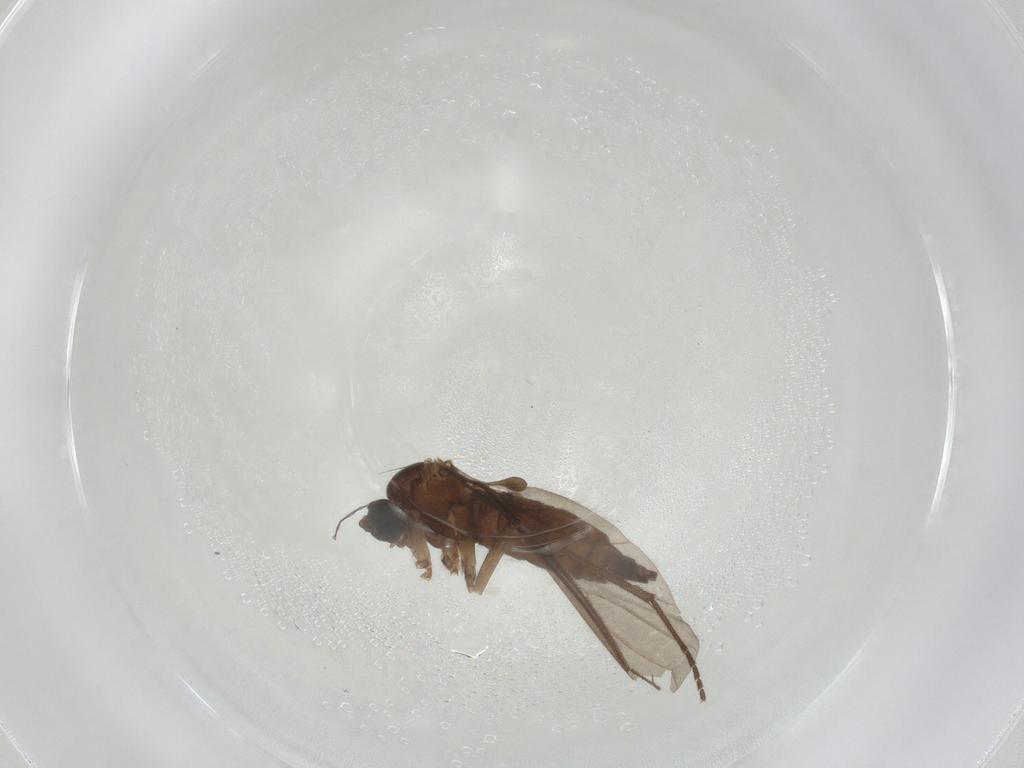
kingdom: Animalia
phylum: Arthropoda
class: Insecta
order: Diptera
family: Sciaridae
